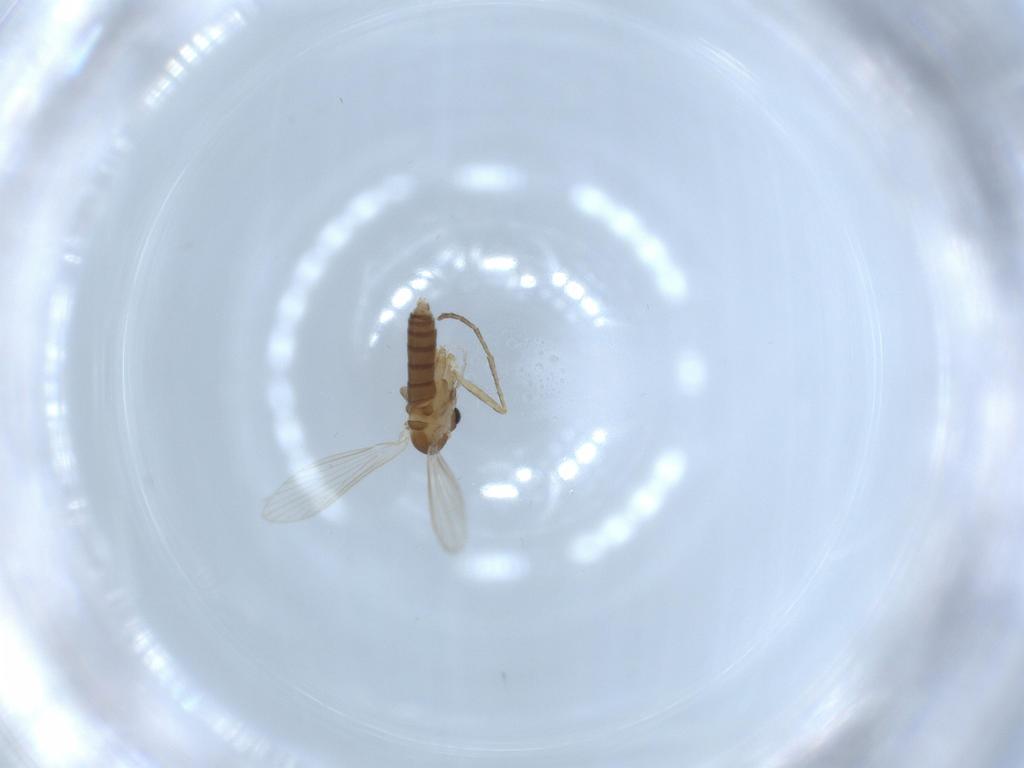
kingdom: Animalia
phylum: Arthropoda
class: Insecta
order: Diptera
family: Psychodidae
